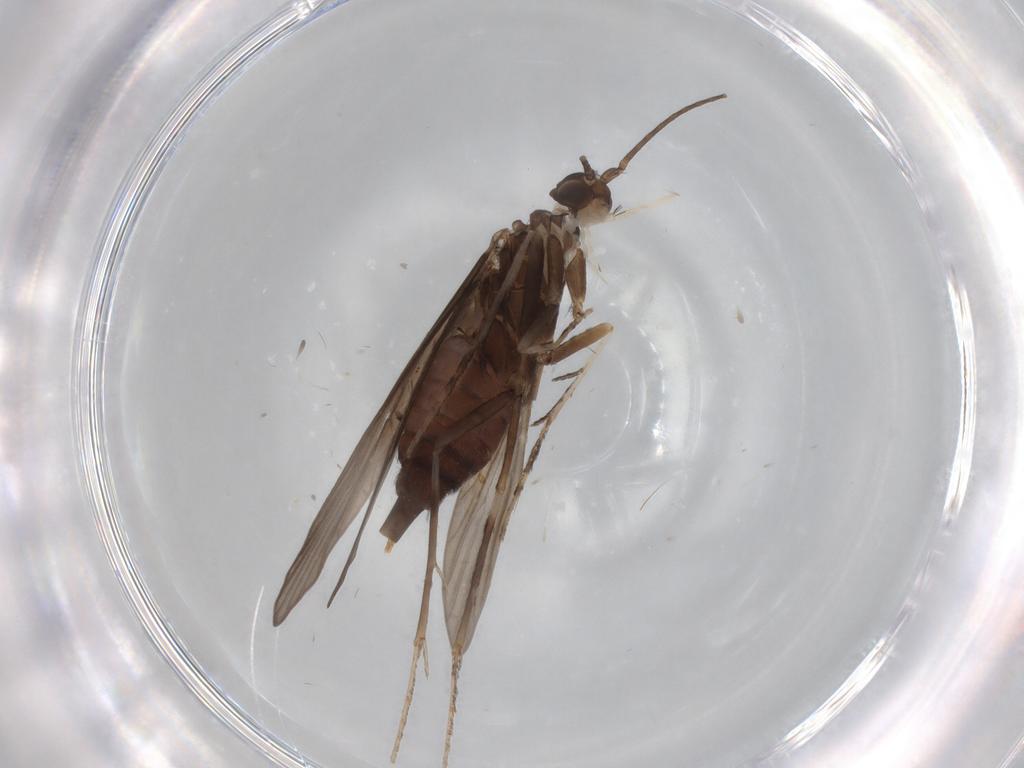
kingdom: Animalia
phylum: Arthropoda
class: Insecta
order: Trichoptera
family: Xiphocentronidae
